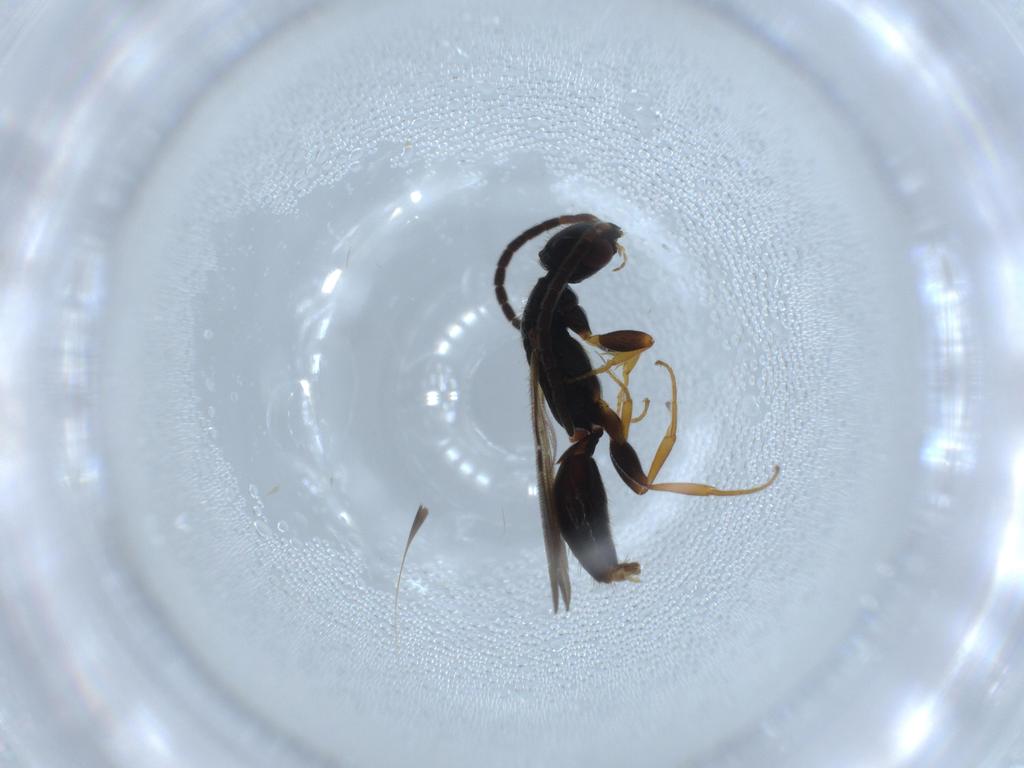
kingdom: Animalia
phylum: Arthropoda
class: Insecta
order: Hymenoptera
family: Bethylidae
